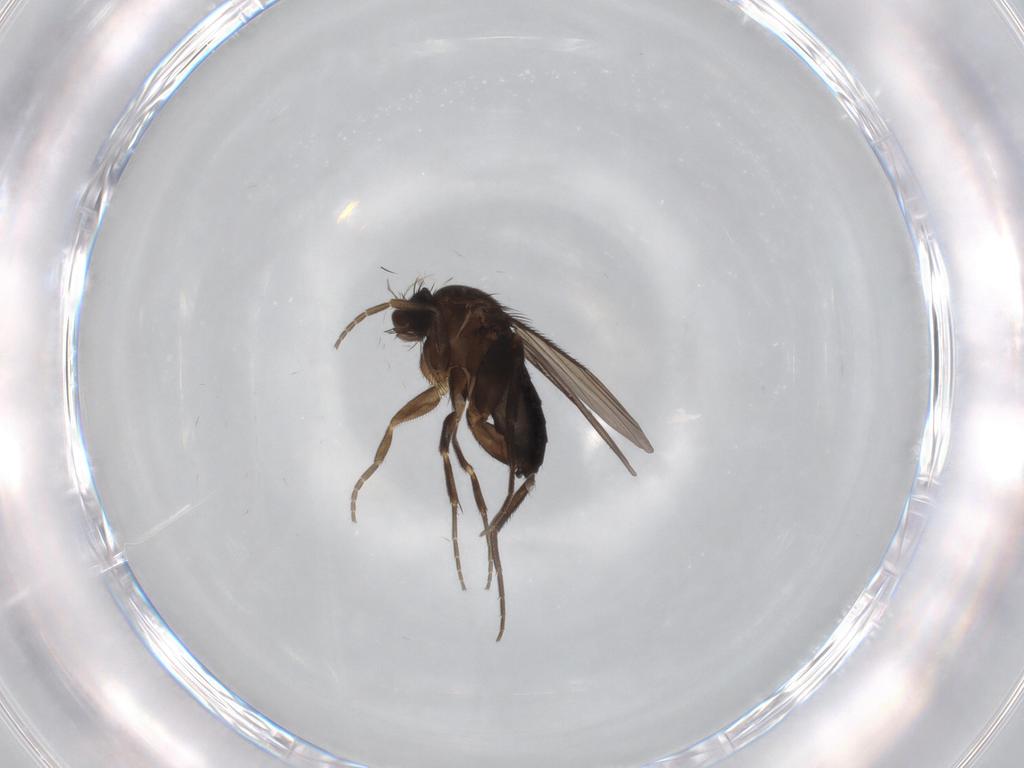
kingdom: Animalia
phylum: Arthropoda
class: Insecta
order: Diptera
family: Phoridae
